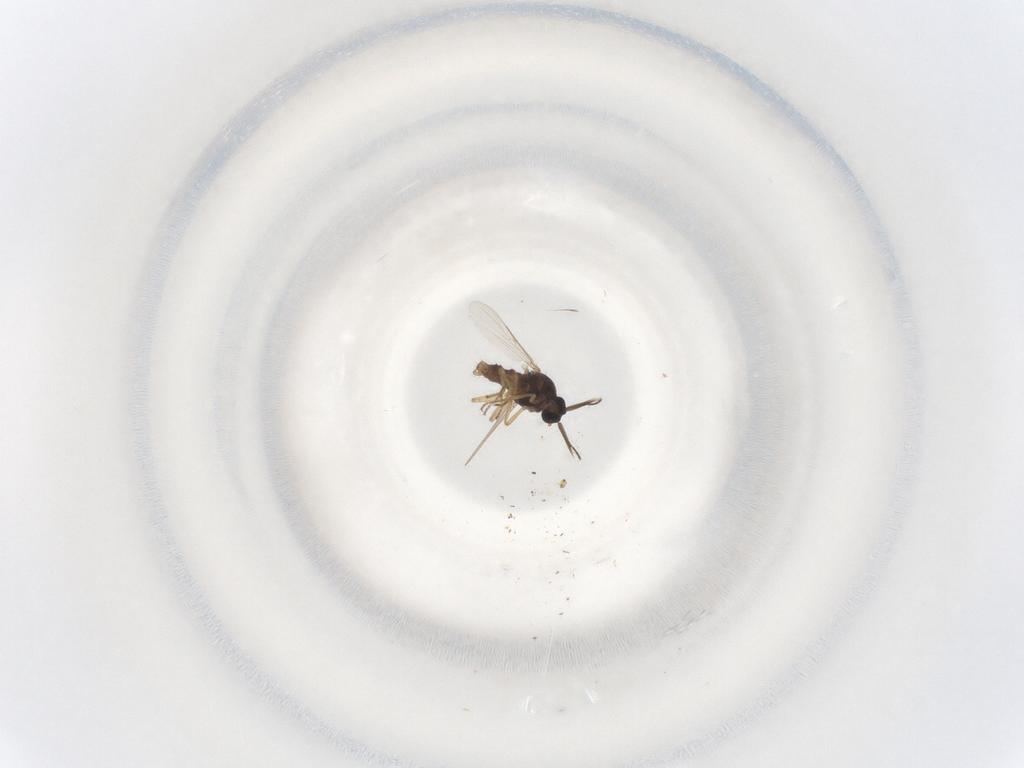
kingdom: Animalia
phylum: Arthropoda
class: Insecta
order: Diptera
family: Ceratopogonidae
